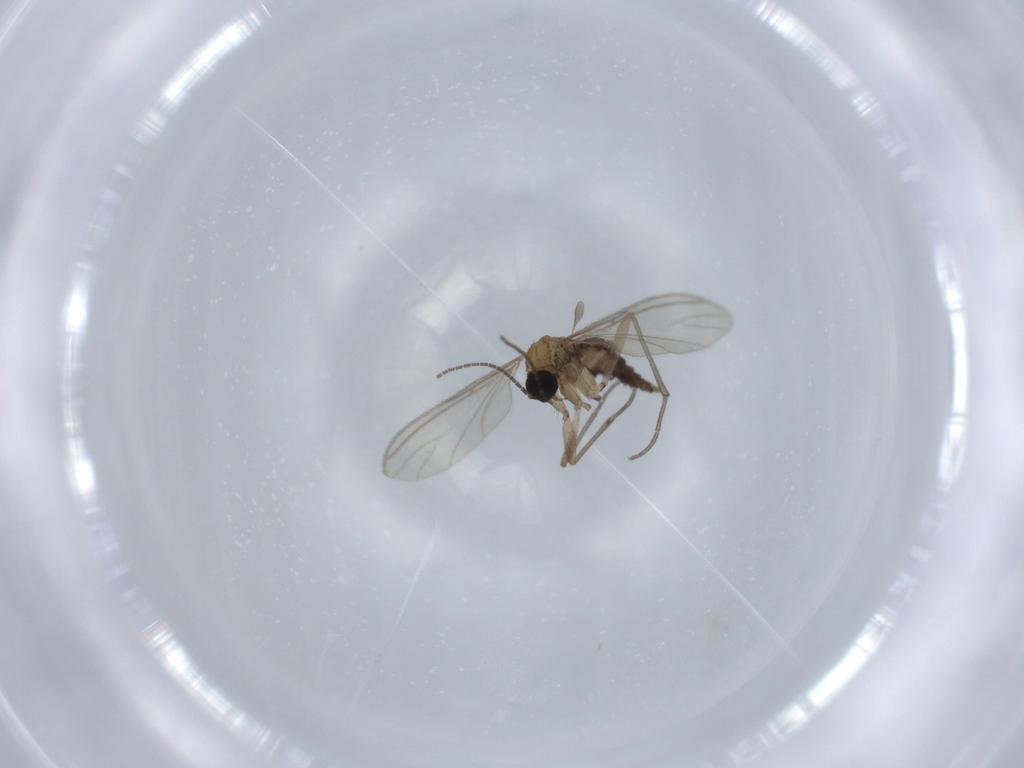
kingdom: Animalia
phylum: Arthropoda
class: Insecta
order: Diptera
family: Sciaridae
